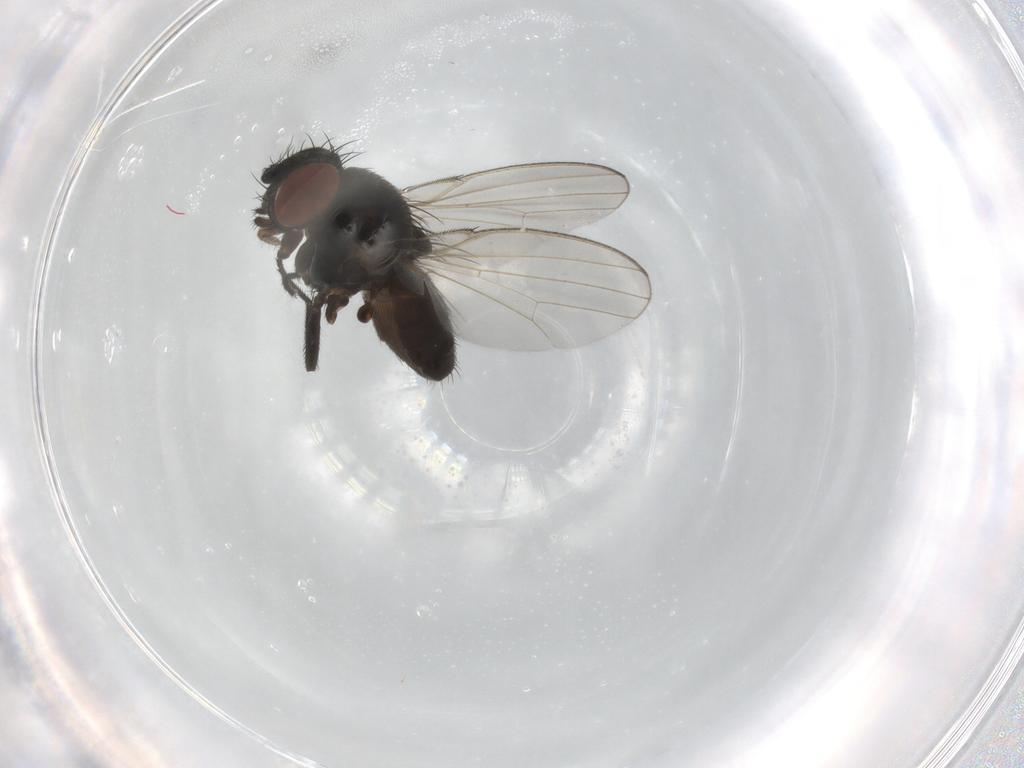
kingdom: Animalia
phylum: Arthropoda
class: Insecta
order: Diptera
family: Milichiidae
